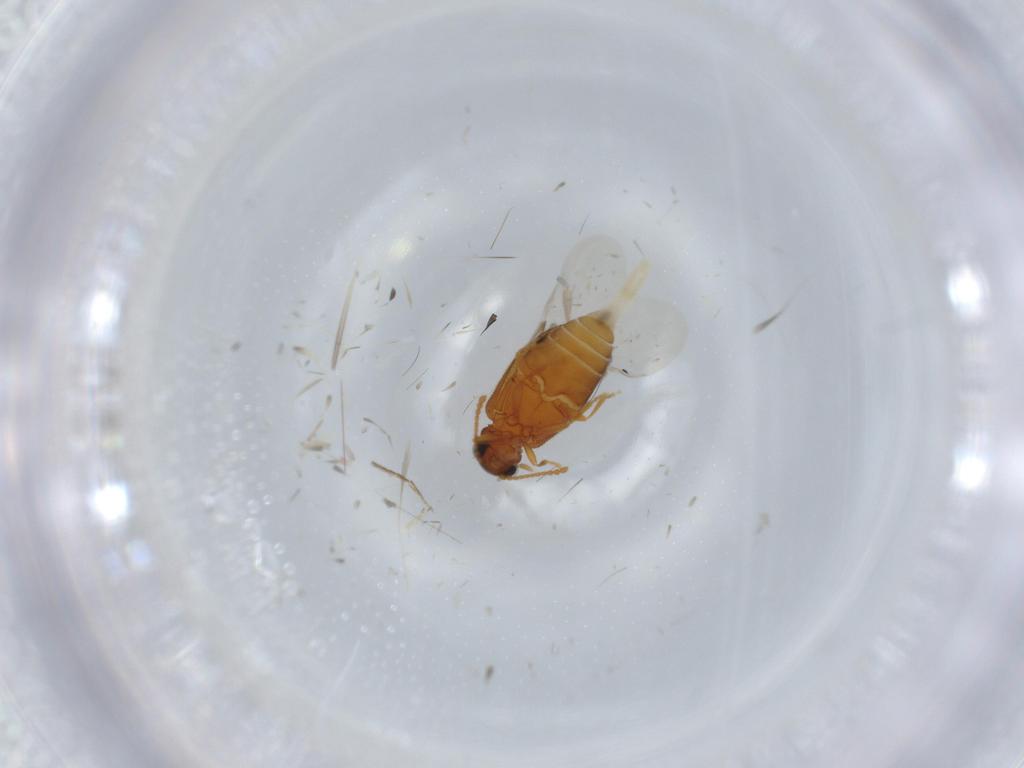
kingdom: Animalia
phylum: Arthropoda
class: Insecta
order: Coleoptera
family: Aderidae
